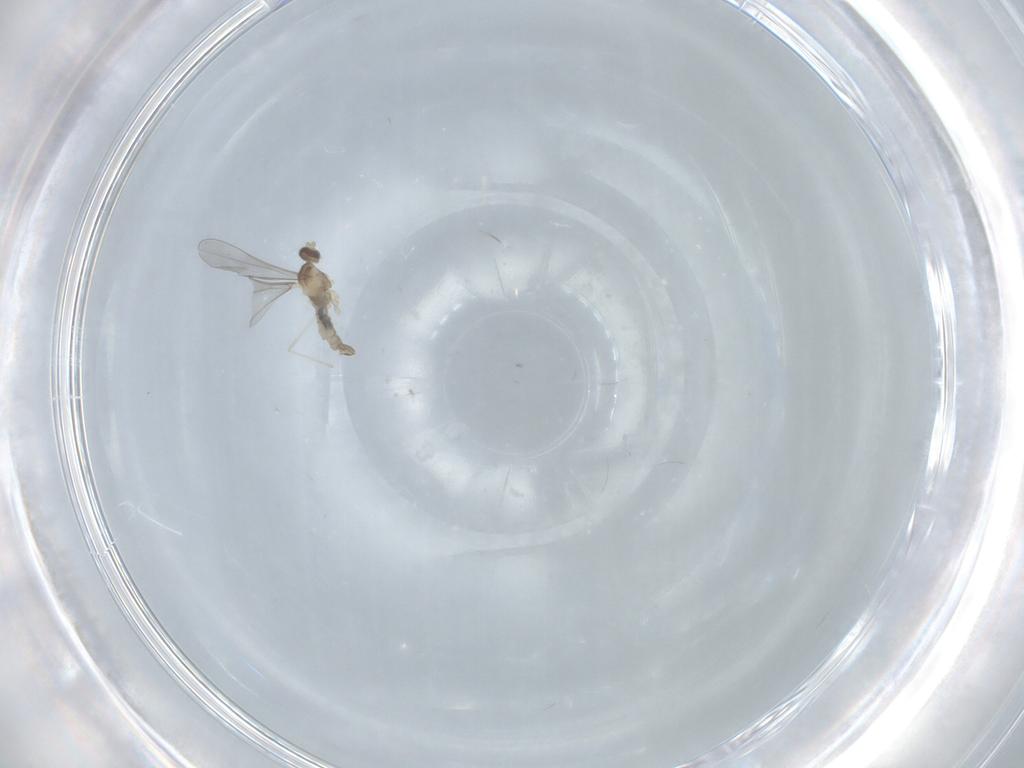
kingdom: Animalia
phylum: Arthropoda
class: Insecta
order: Diptera
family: Cecidomyiidae
